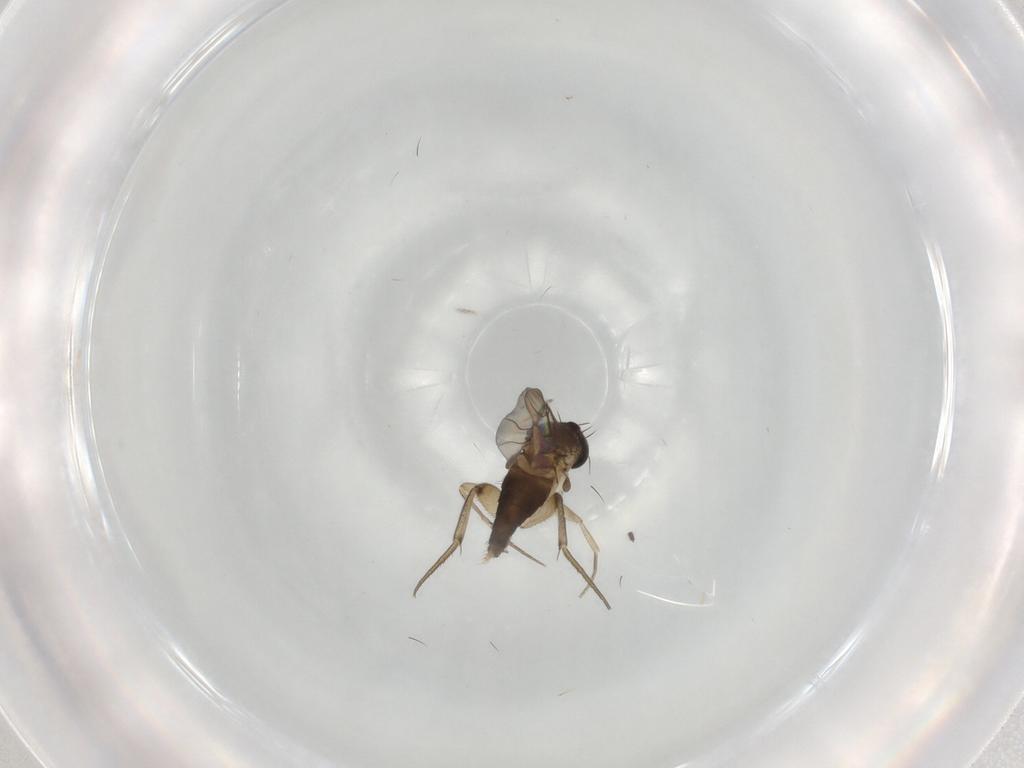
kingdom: Animalia
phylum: Arthropoda
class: Insecta
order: Diptera
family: Phoridae
